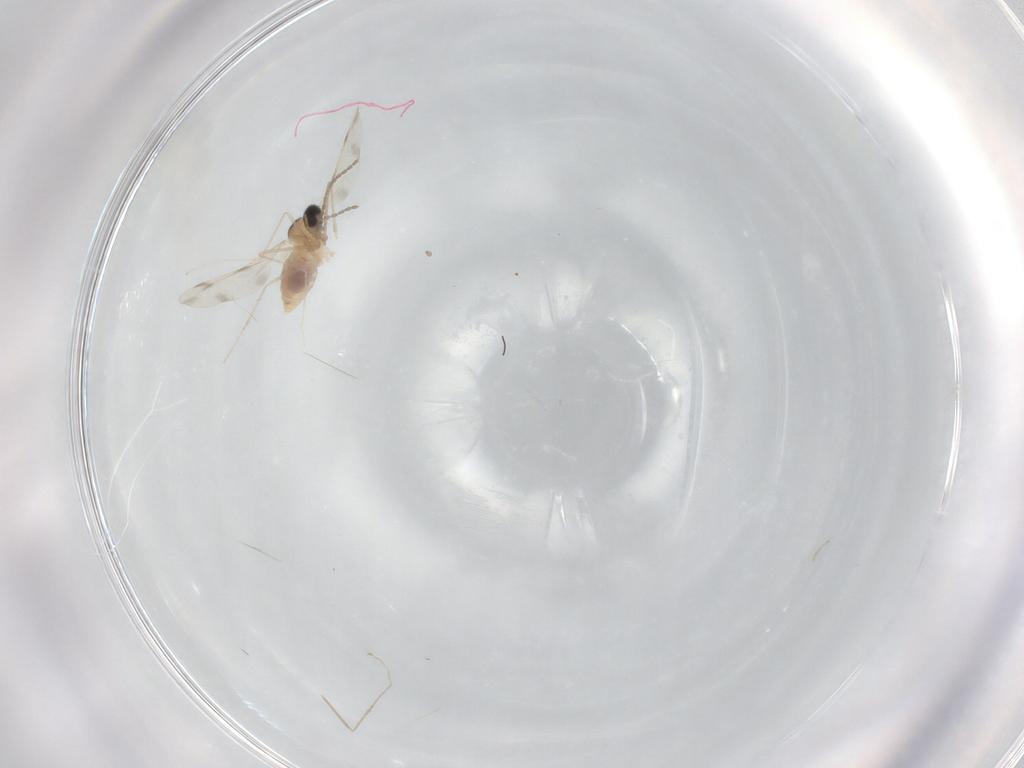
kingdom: Animalia
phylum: Arthropoda
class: Insecta
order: Diptera
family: Cecidomyiidae
